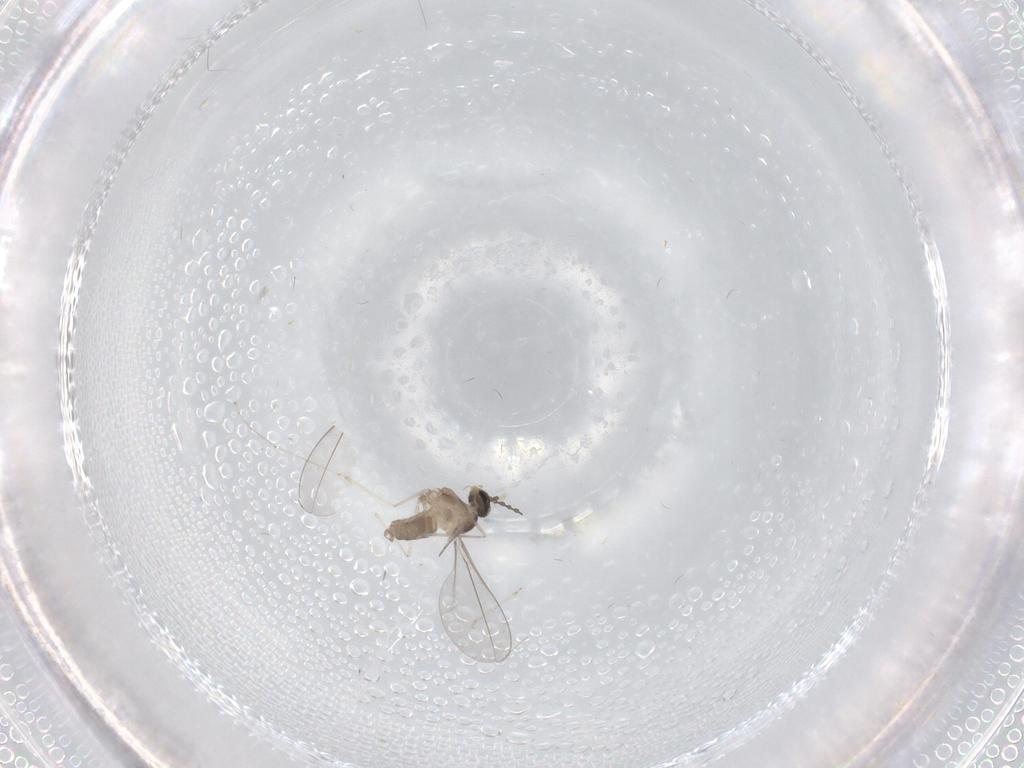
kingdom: Animalia
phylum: Arthropoda
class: Insecta
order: Diptera
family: Cecidomyiidae
